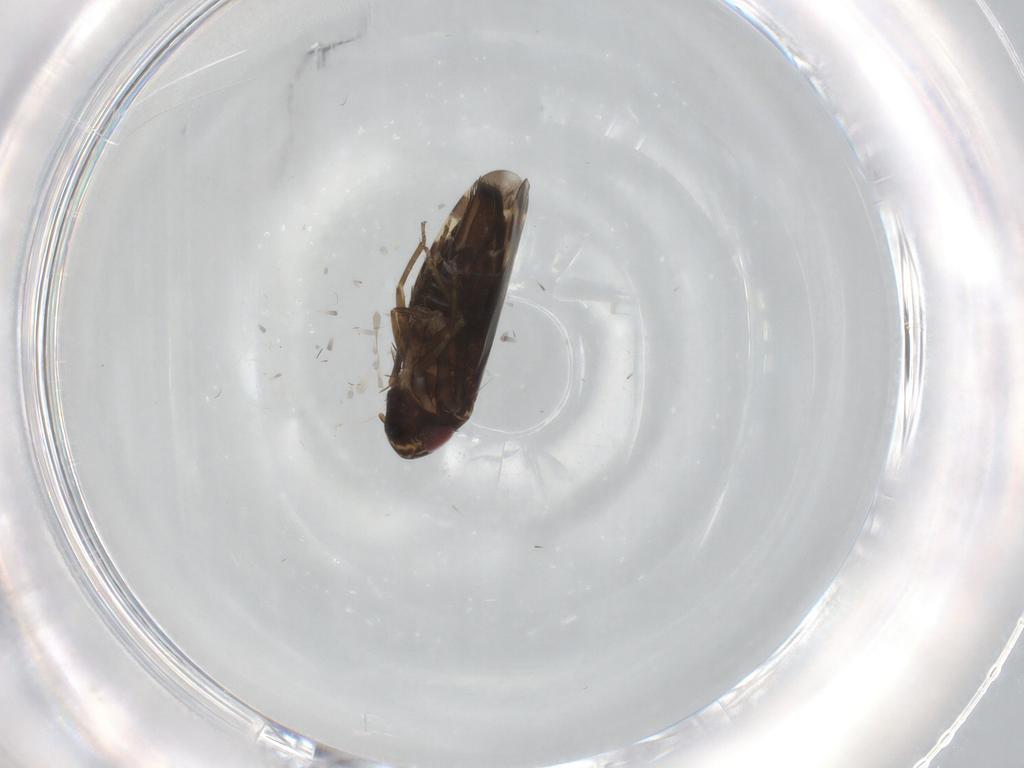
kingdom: Animalia
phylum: Arthropoda
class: Insecta
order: Hemiptera
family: Cicadellidae
